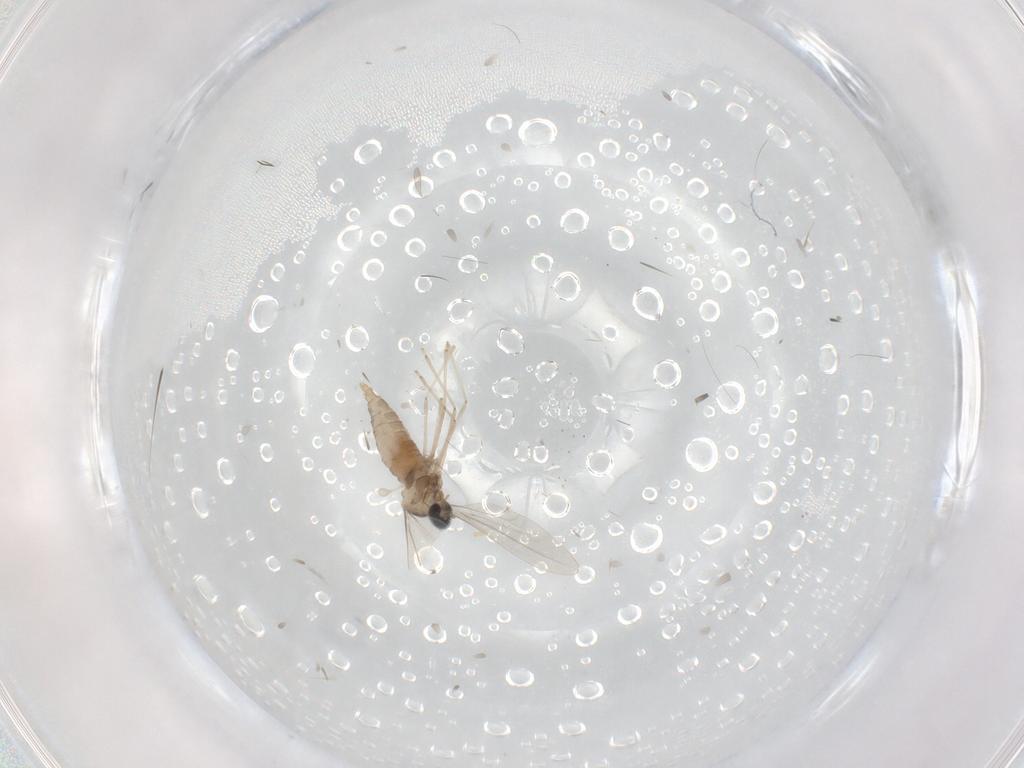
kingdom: Animalia
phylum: Arthropoda
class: Insecta
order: Diptera
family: Cecidomyiidae
